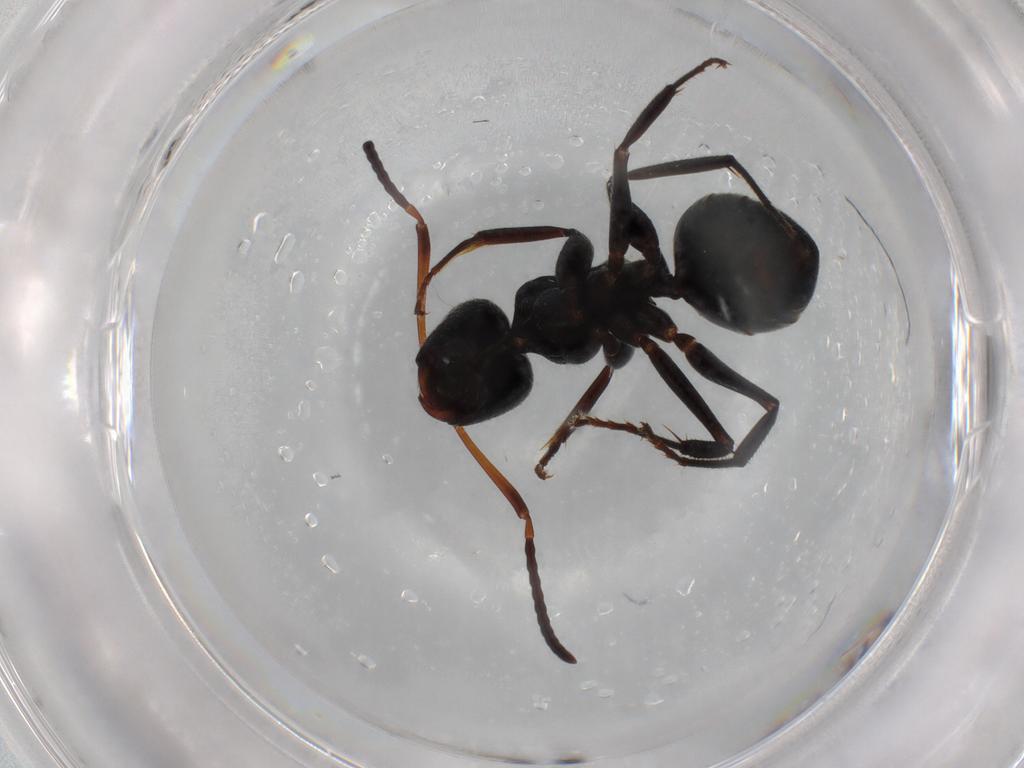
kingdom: Animalia
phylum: Arthropoda
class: Insecta
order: Hymenoptera
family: Formicidae
